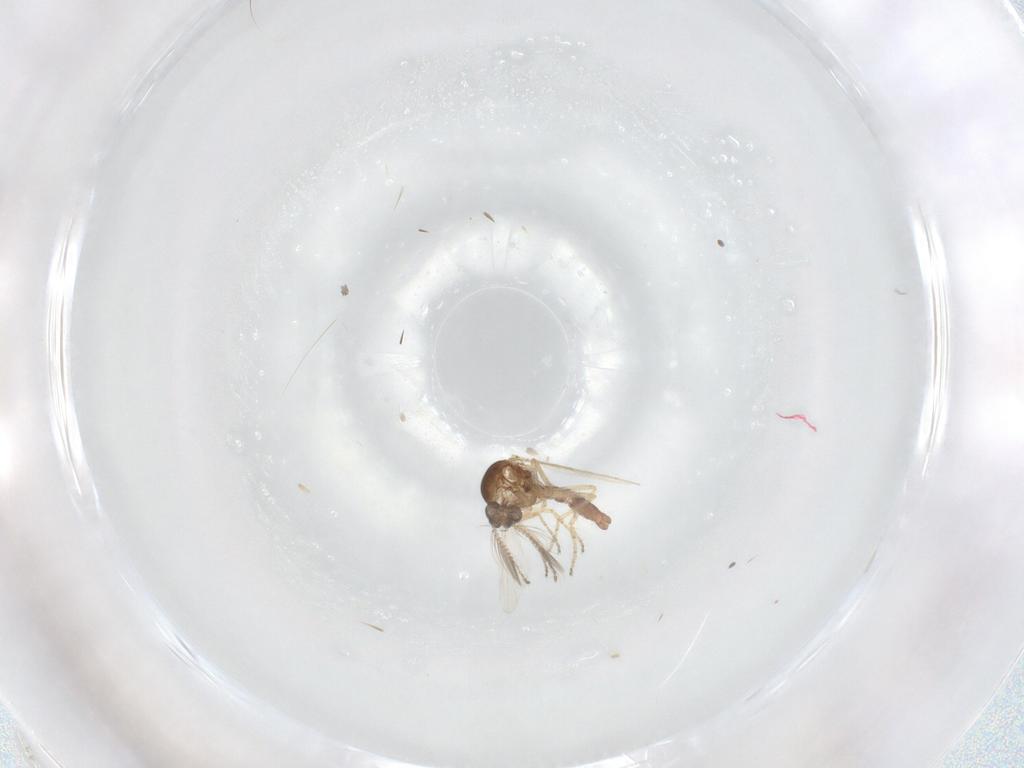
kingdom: Animalia
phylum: Arthropoda
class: Insecta
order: Diptera
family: Ceratopogonidae
